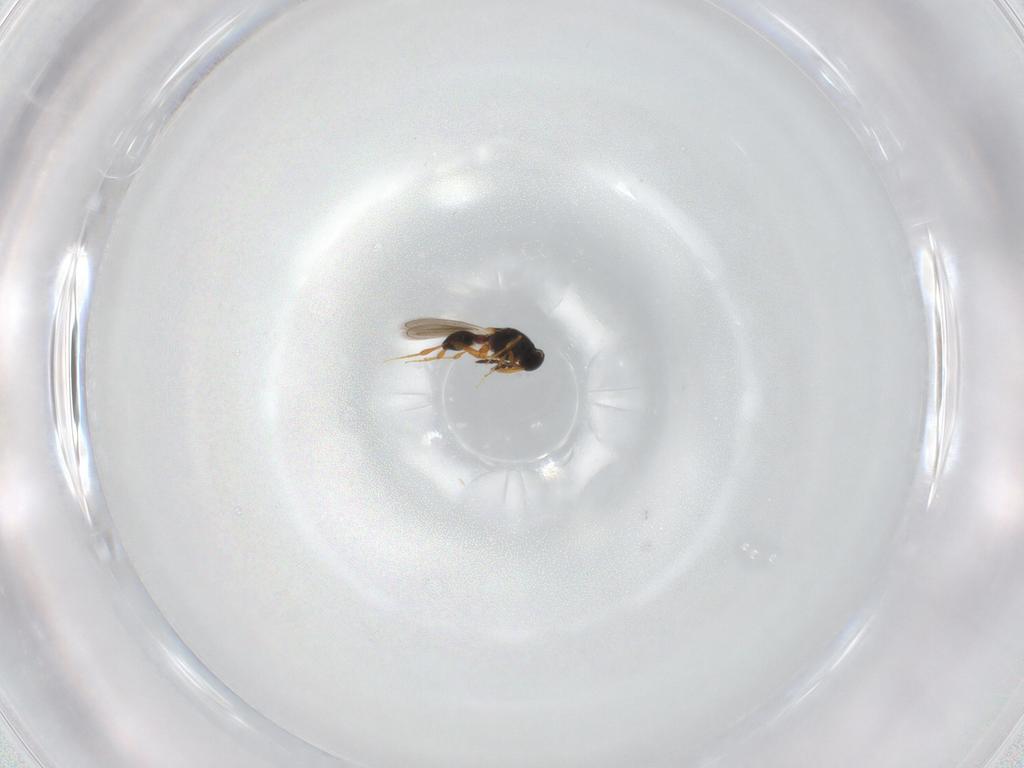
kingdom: Animalia
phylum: Arthropoda
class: Insecta
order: Hymenoptera
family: Platygastridae
